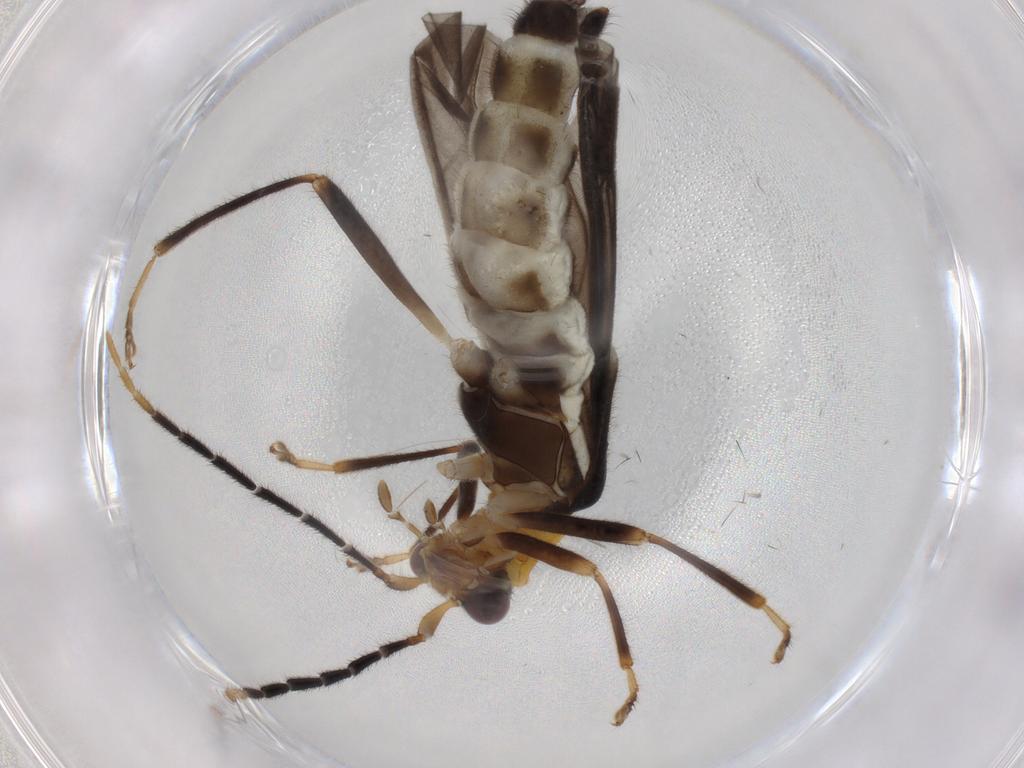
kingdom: Animalia
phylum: Arthropoda
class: Insecta
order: Coleoptera
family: Cantharidae
